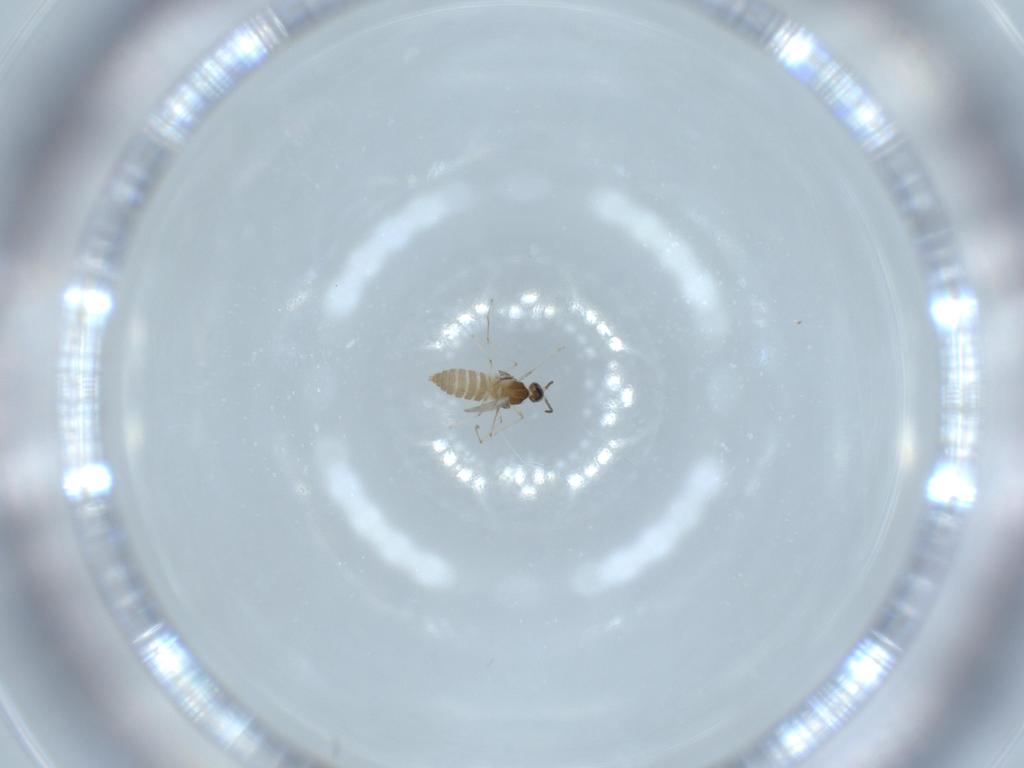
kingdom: Animalia
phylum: Arthropoda
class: Insecta
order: Diptera
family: Cecidomyiidae
